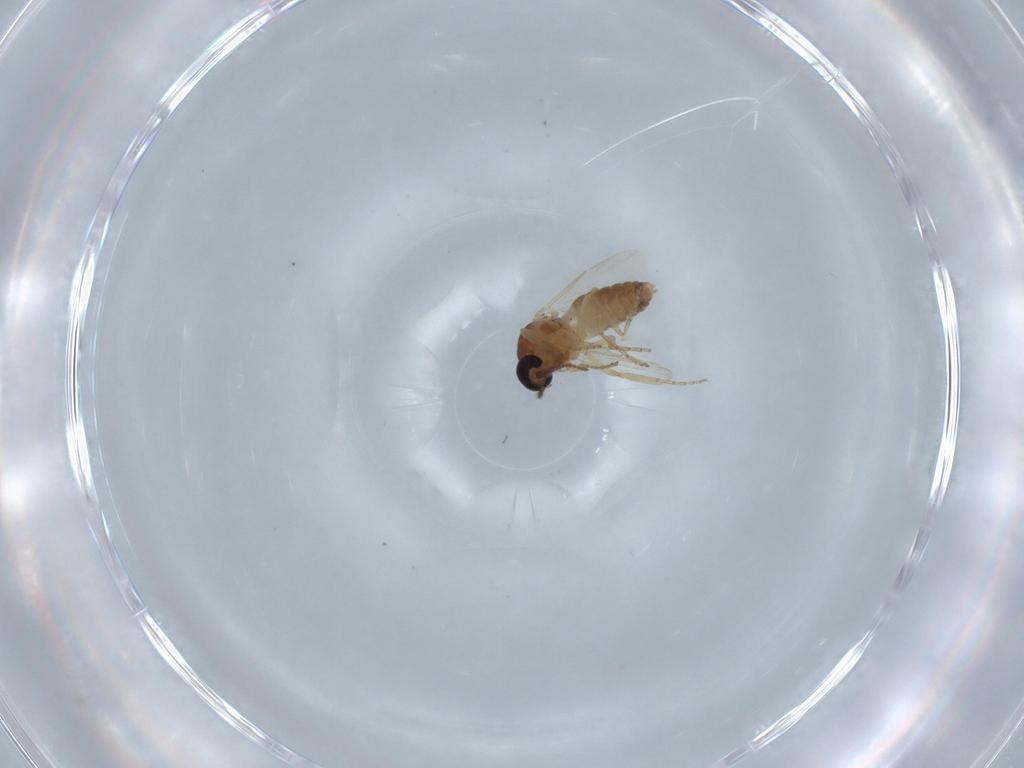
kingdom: Animalia
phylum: Arthropoda
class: Insecta
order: Diptera
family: Ceratopogonidae
